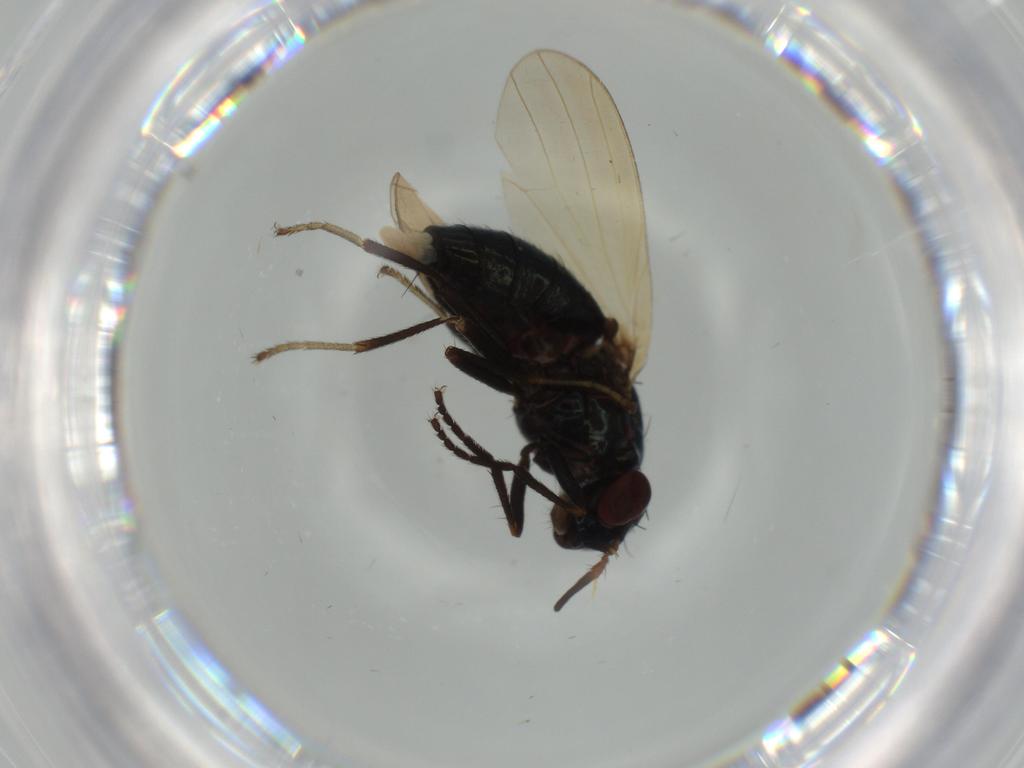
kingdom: Animalia
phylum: Arthropoda
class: Insecta
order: Diptera
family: Muscidae
